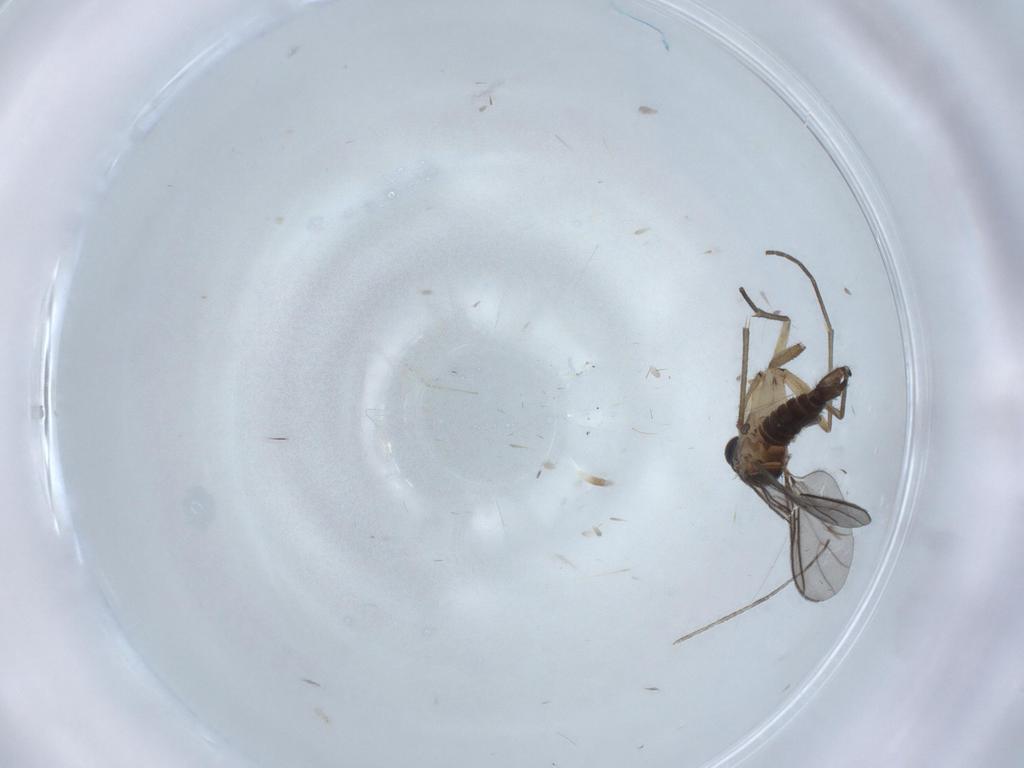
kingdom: Animalia
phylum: Arthropoda
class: Insecta
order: Diptera
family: Sciaridae
